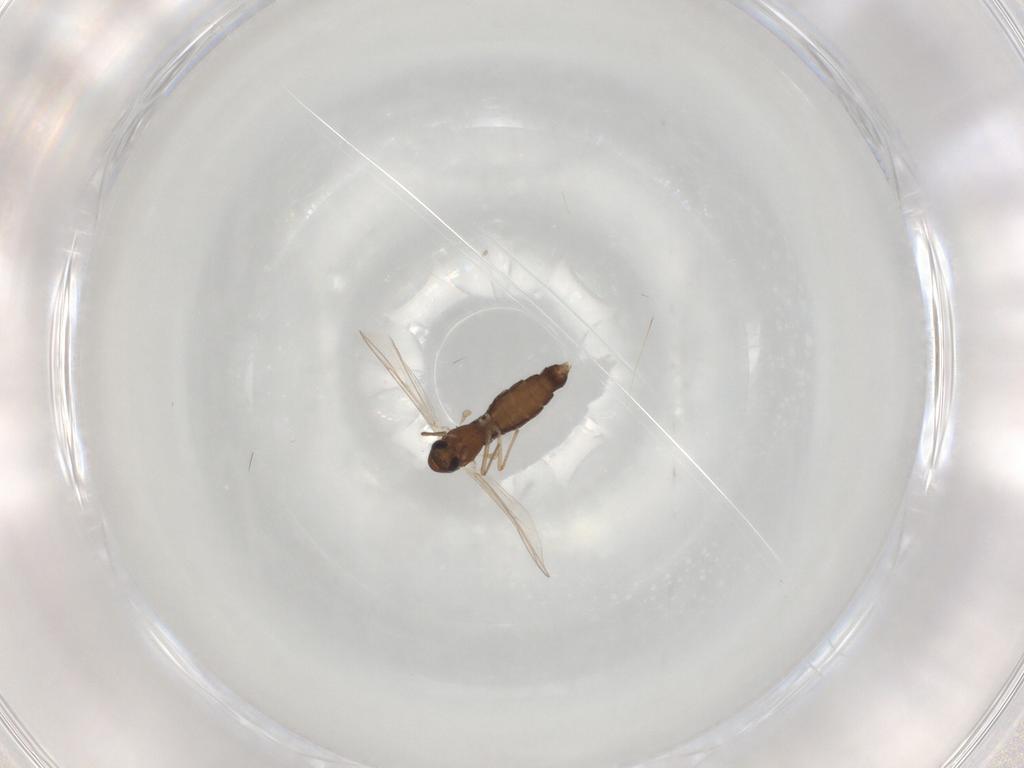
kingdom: Animalia
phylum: Arthropoda
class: Insecta
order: Diptera
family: Chironomidae
